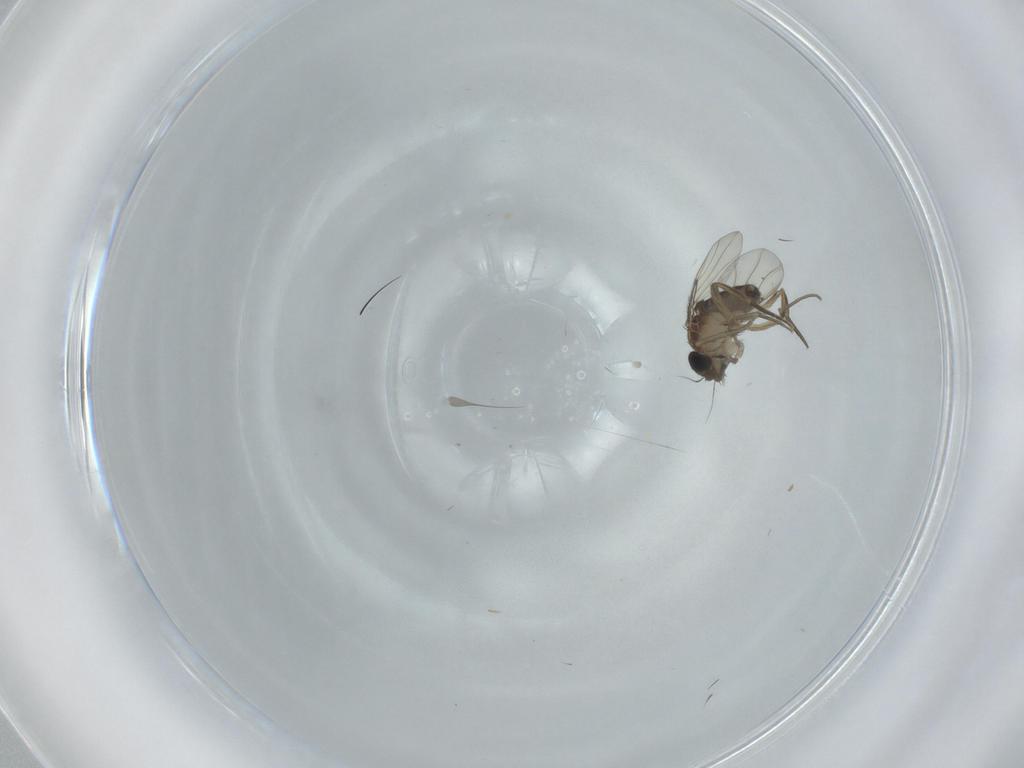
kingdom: Animalia
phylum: Arthropoda
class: Insecta
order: Diptera
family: Phoridae
